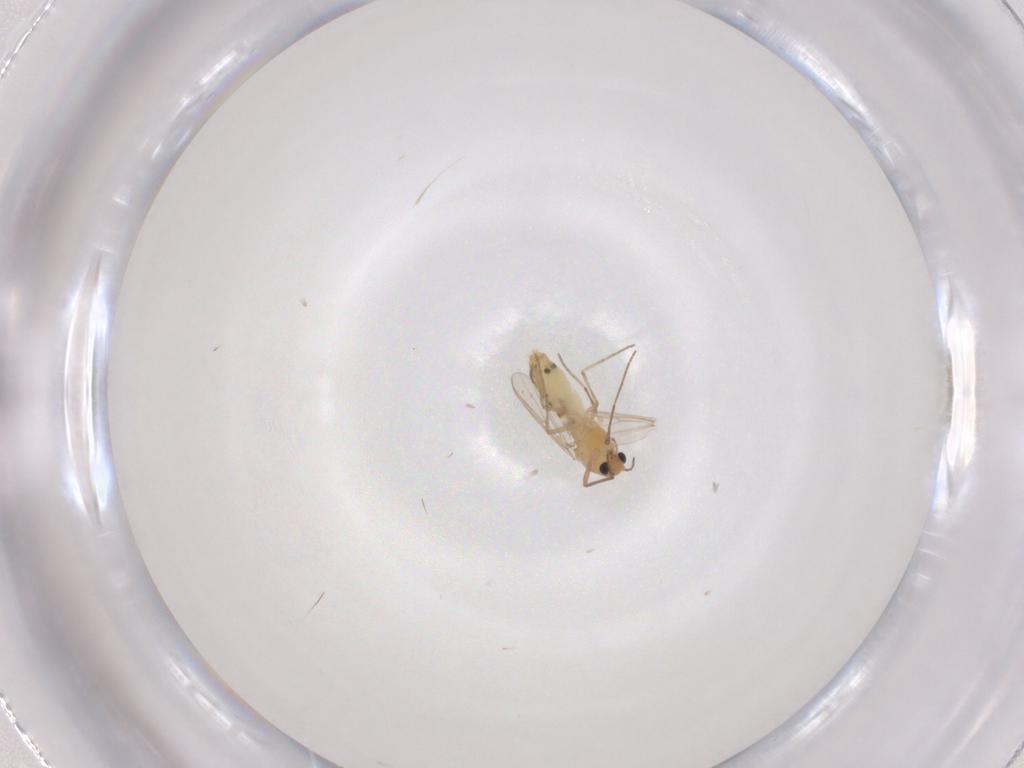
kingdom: Animalia
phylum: Arthropoda
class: Insecta
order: Diptera
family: Chironomidae
